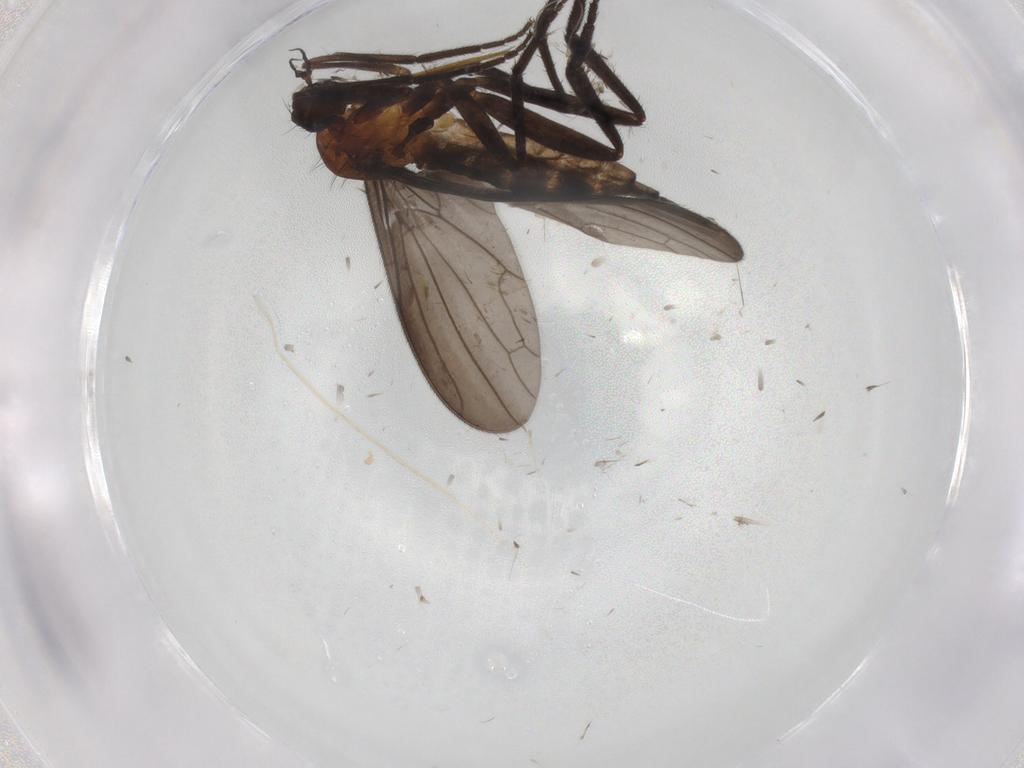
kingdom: Animalia
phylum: Arthropoda
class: Insecta
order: Diptera
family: Empididae
